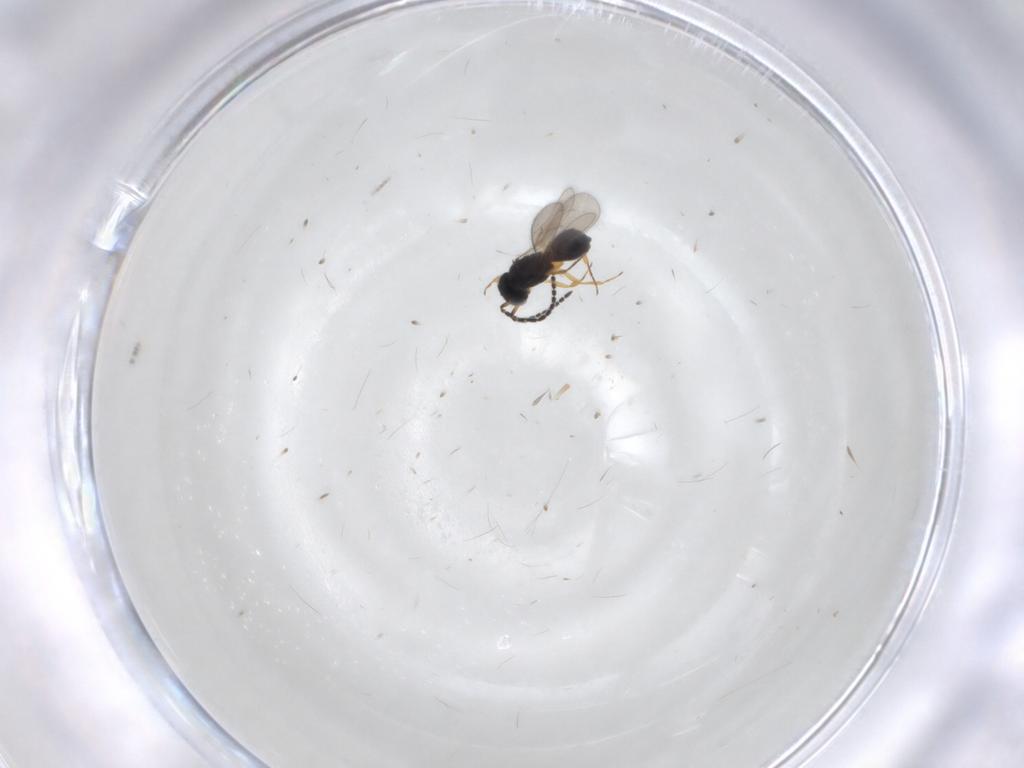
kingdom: Animalia
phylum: Arthropoda
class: Insecta
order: Hymenoptera
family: Scelionidae
